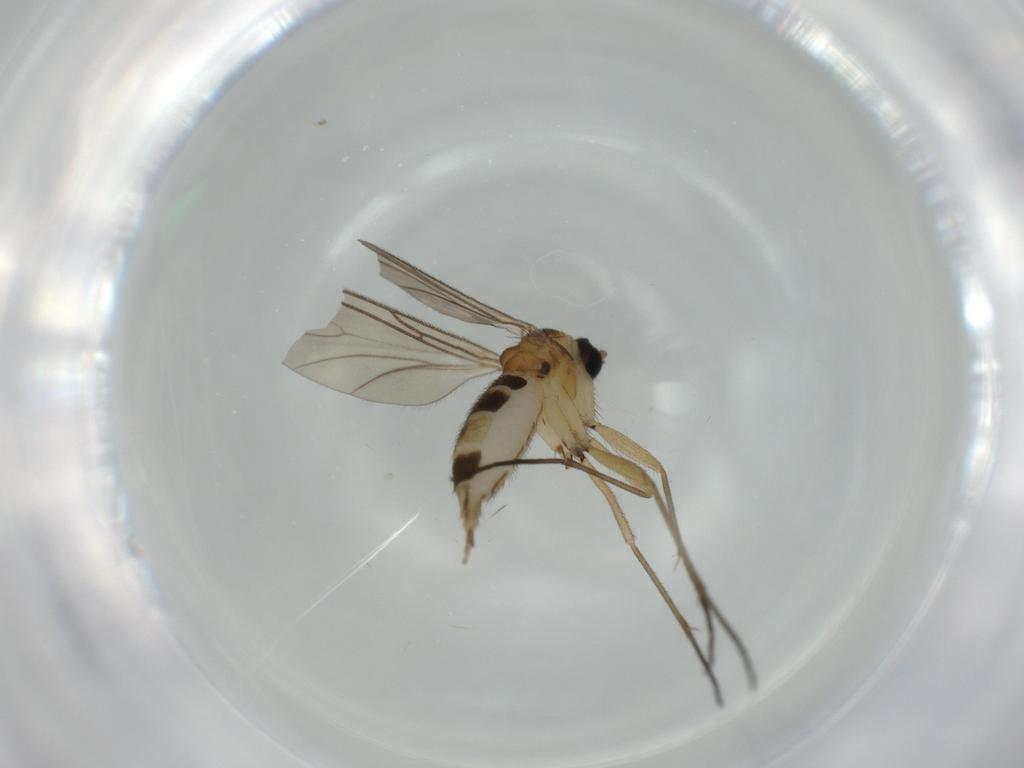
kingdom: Animalia
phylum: Arthropoda
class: Insecta
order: Diptera
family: Sciaridae
